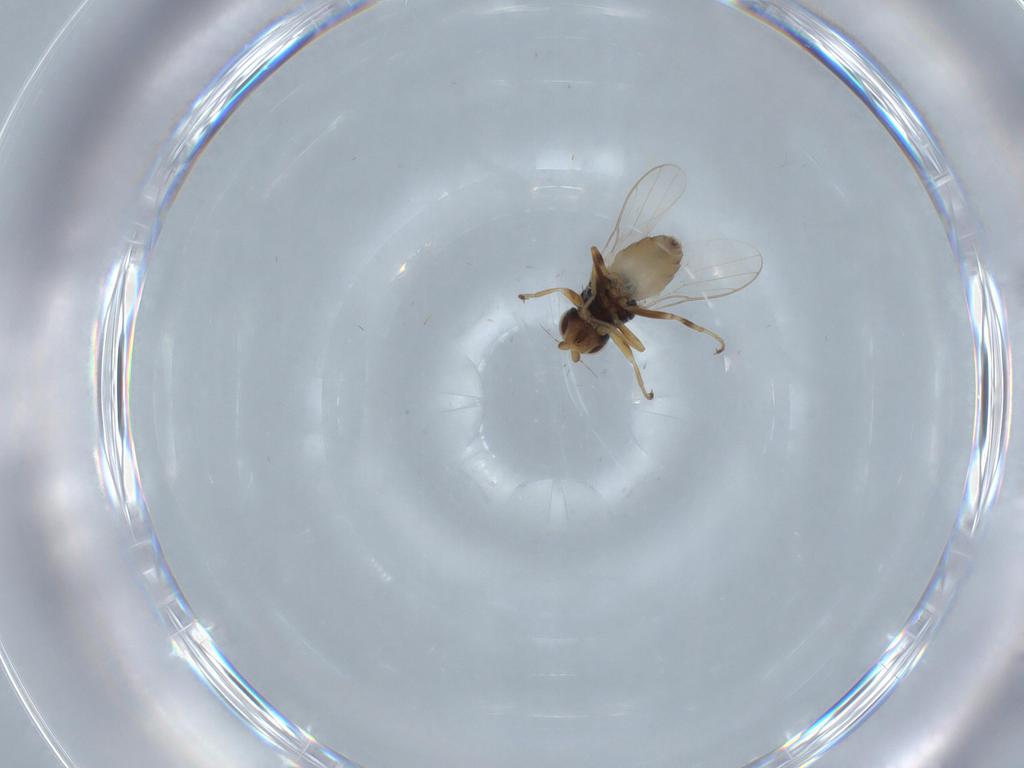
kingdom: Animalia
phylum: Arthropoda
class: Insecta
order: Diptera
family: Chloropidae
